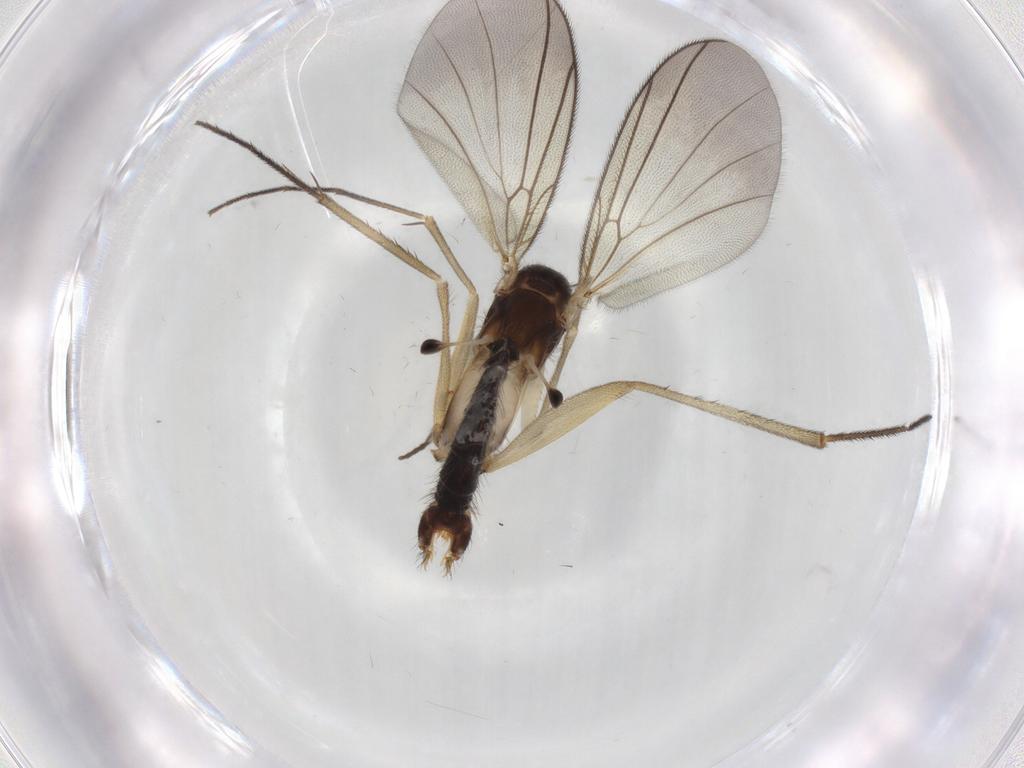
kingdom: Animalia
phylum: Arthropoda
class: Insecta
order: Diptera
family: Mycetophilidae
